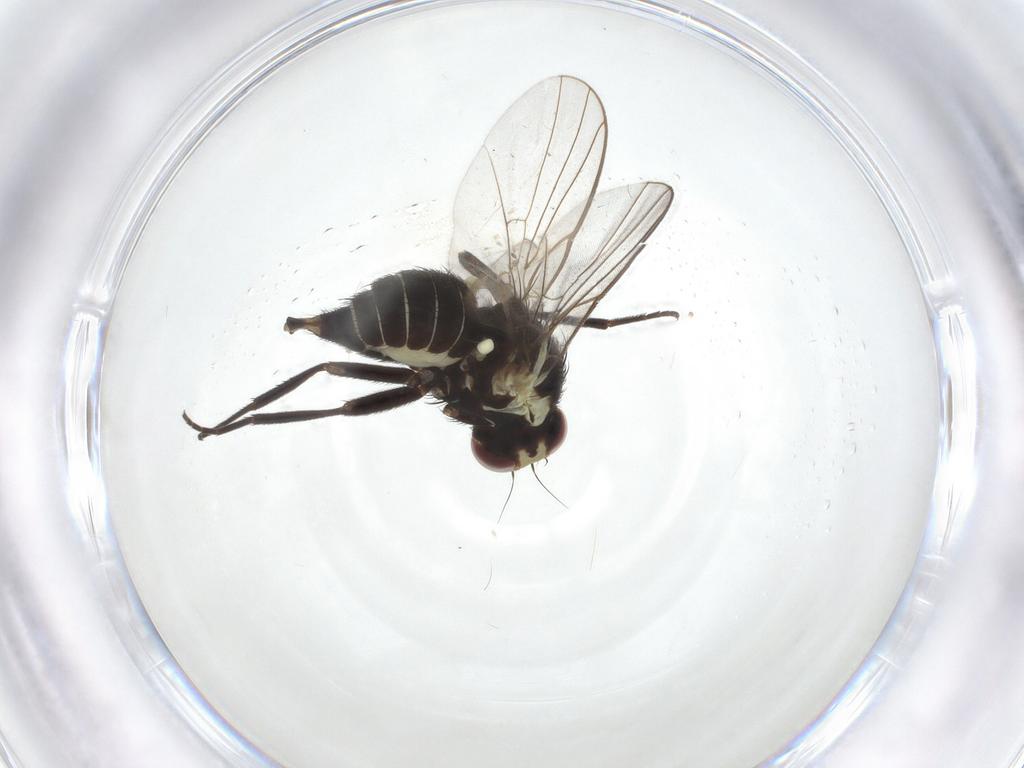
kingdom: Animalia
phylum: Arthropoda
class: Insecta
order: Diptera
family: Agromyzidae
